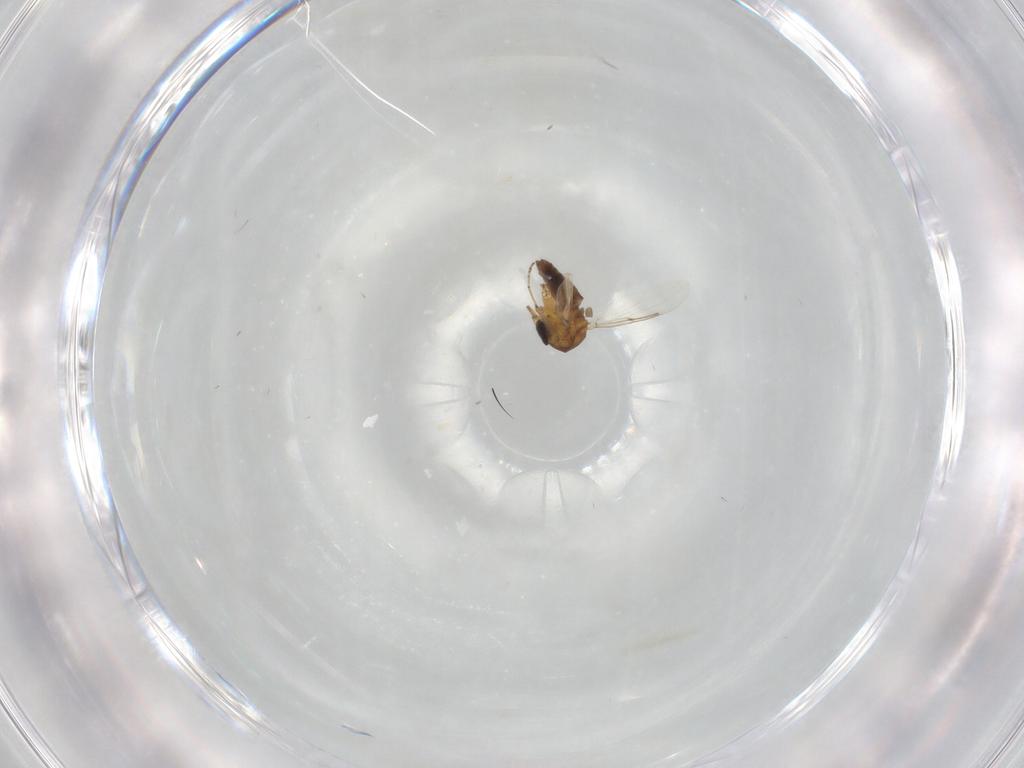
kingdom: Animalia
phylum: Arthropoda
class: Insecta
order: Diptera
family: Ceratopogonidae
